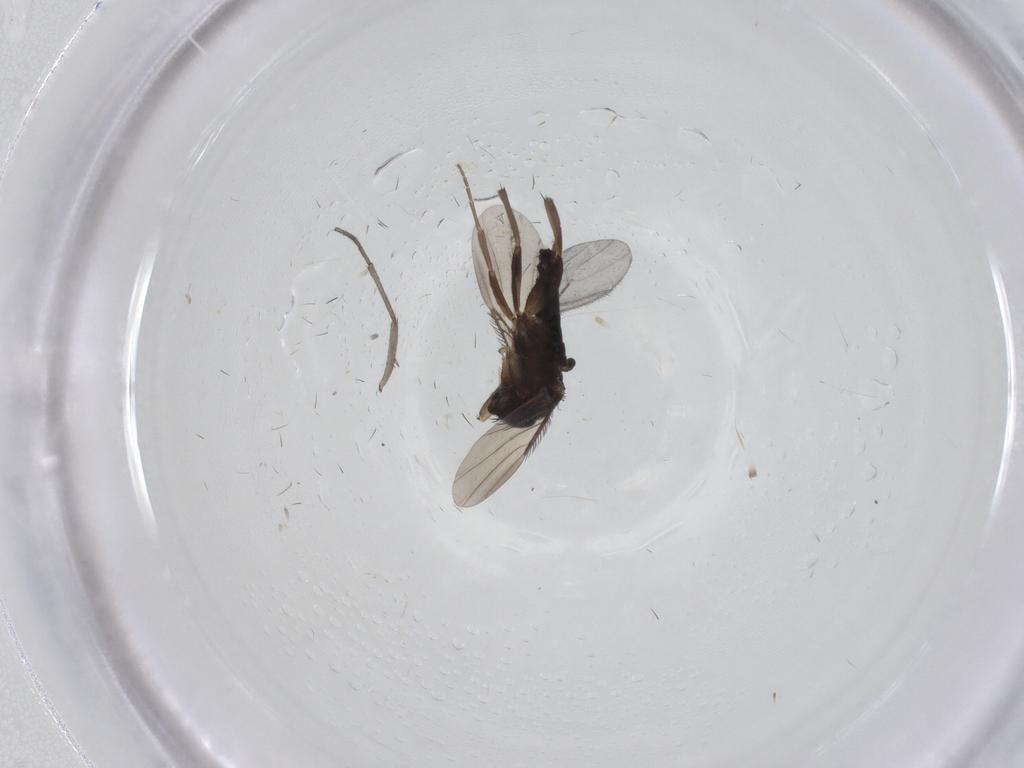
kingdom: Animalia
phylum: Arthropoda
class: Insecta
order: Diptera
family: Phoridae
